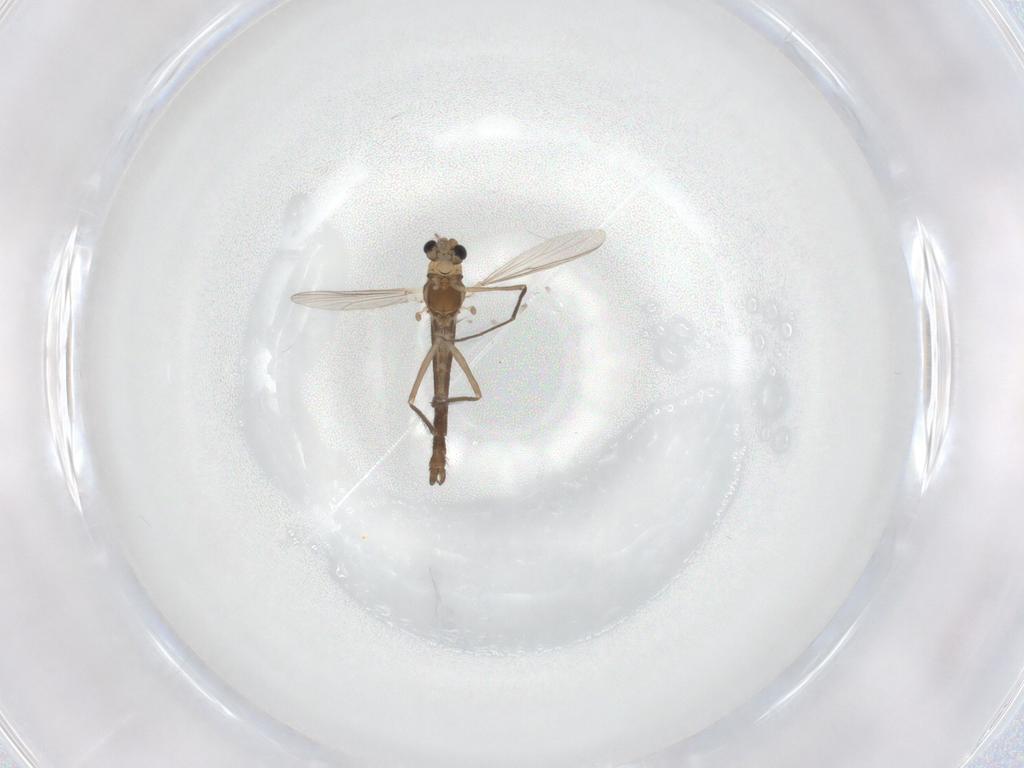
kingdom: Animalia
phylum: Arthropoda
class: Insecta
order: Diptera
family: Chironomidae
